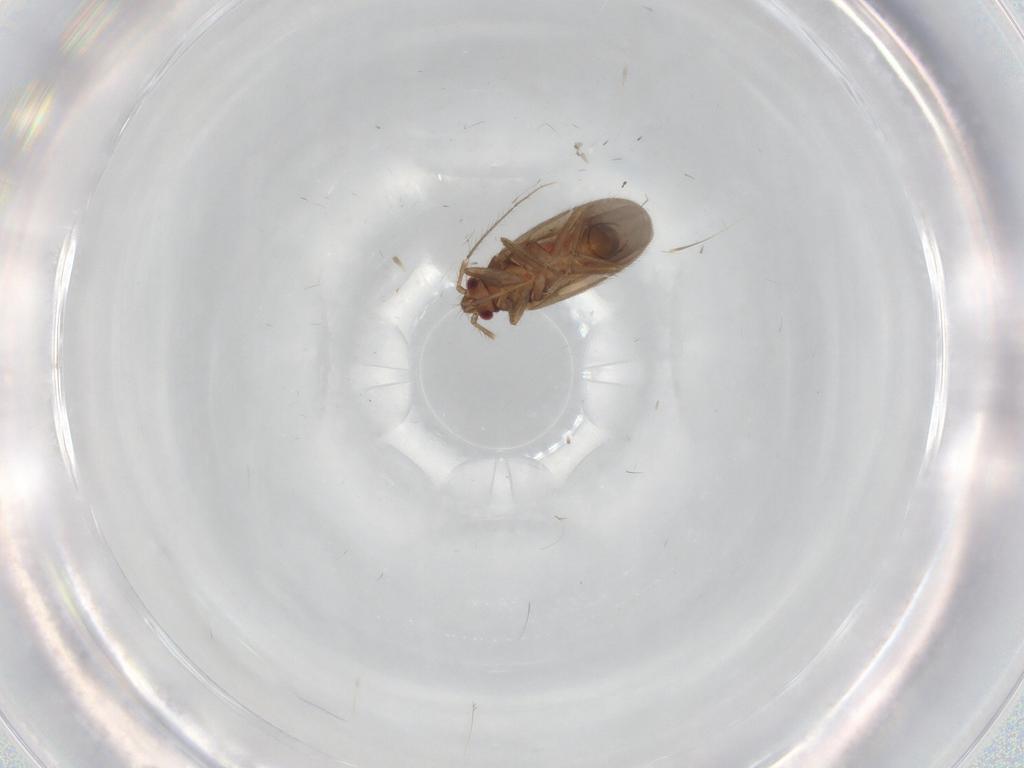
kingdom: Animalia
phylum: Arthropoda
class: Insecta
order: Hemiptera
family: Ceratocombidae
